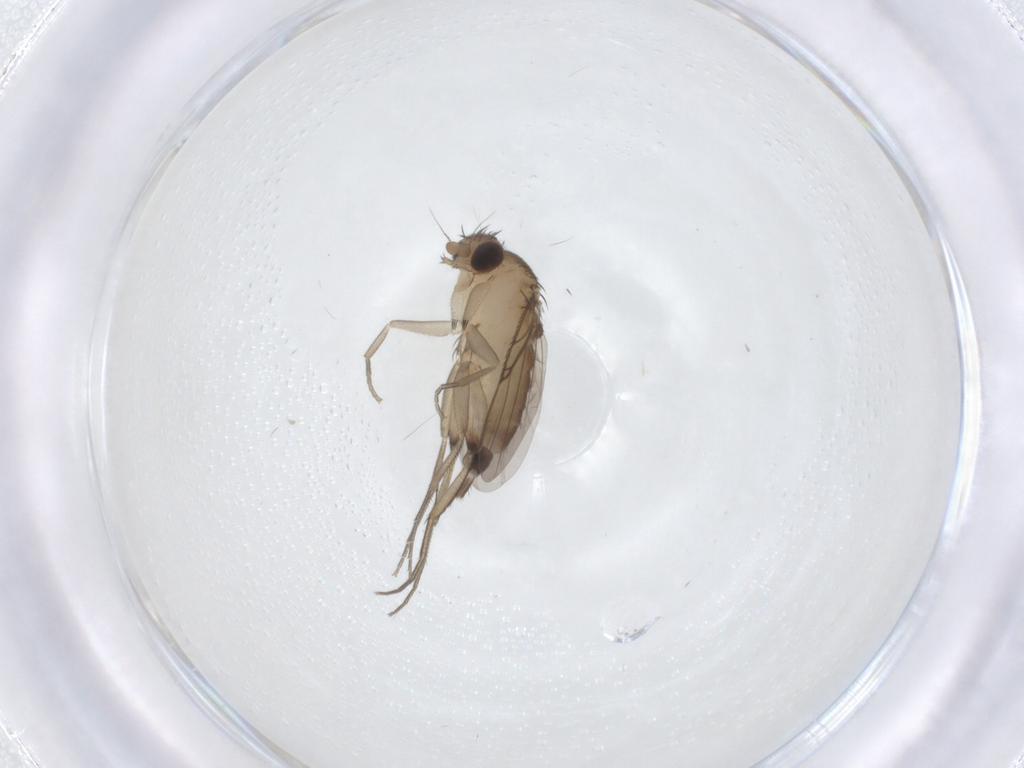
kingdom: Animalia
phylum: Arthropoda
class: Insecta
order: Diptera
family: Phoridae
